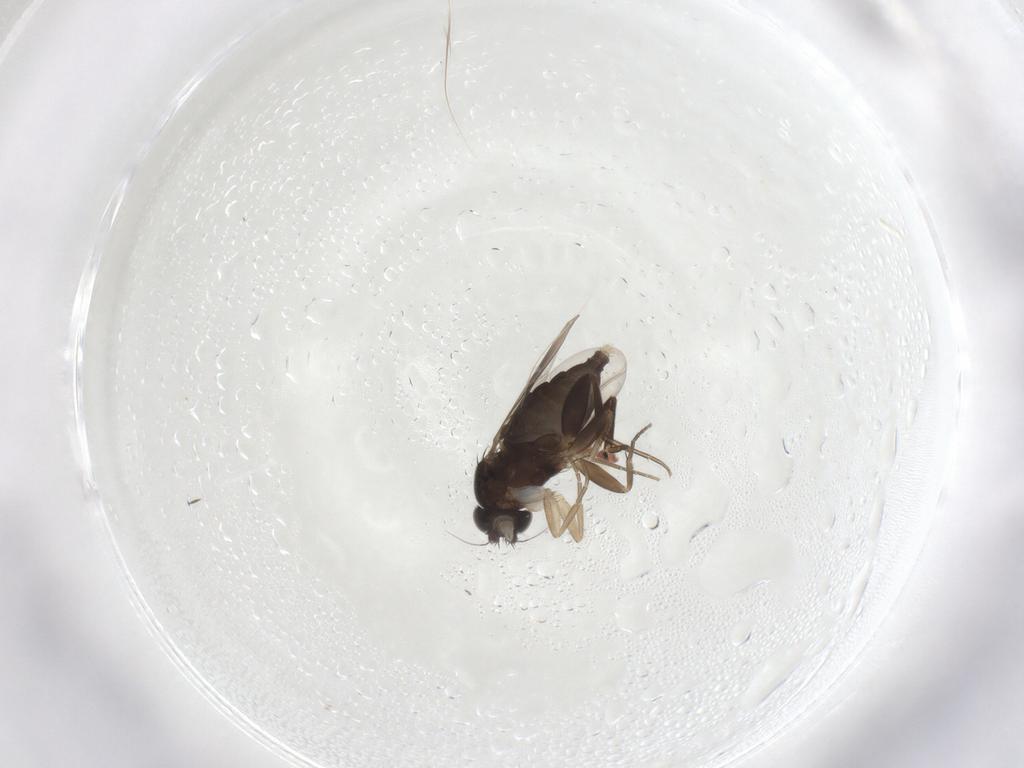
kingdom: Animalia
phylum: Arthropoda
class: Insecta
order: Diptera
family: Phoridae
